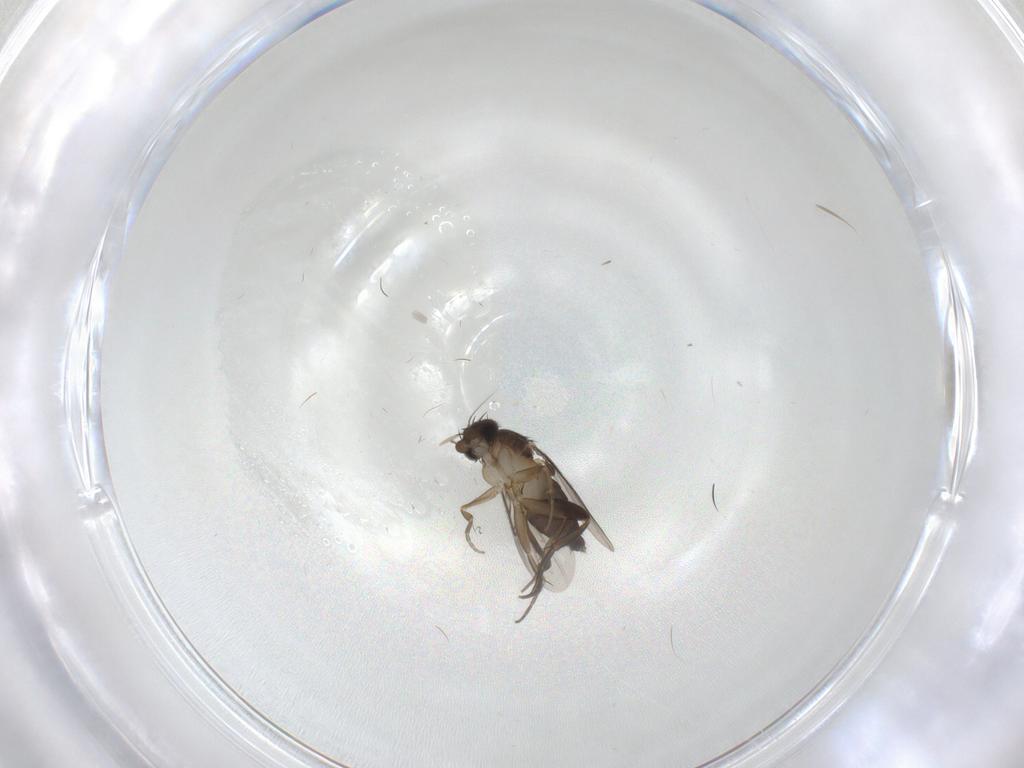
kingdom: Animalia
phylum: Arthropoda
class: Insecta
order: Diptera
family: Phoridae
